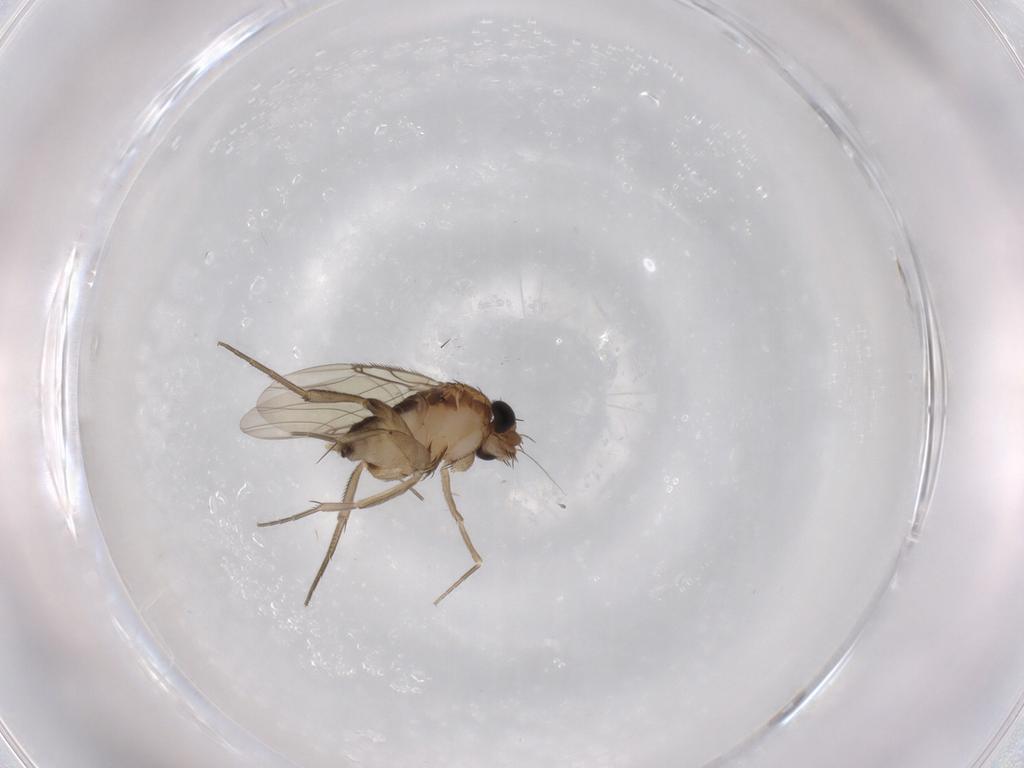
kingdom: Animalia
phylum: Arthropoda
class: Insecta
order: Diptera
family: Phoridae
